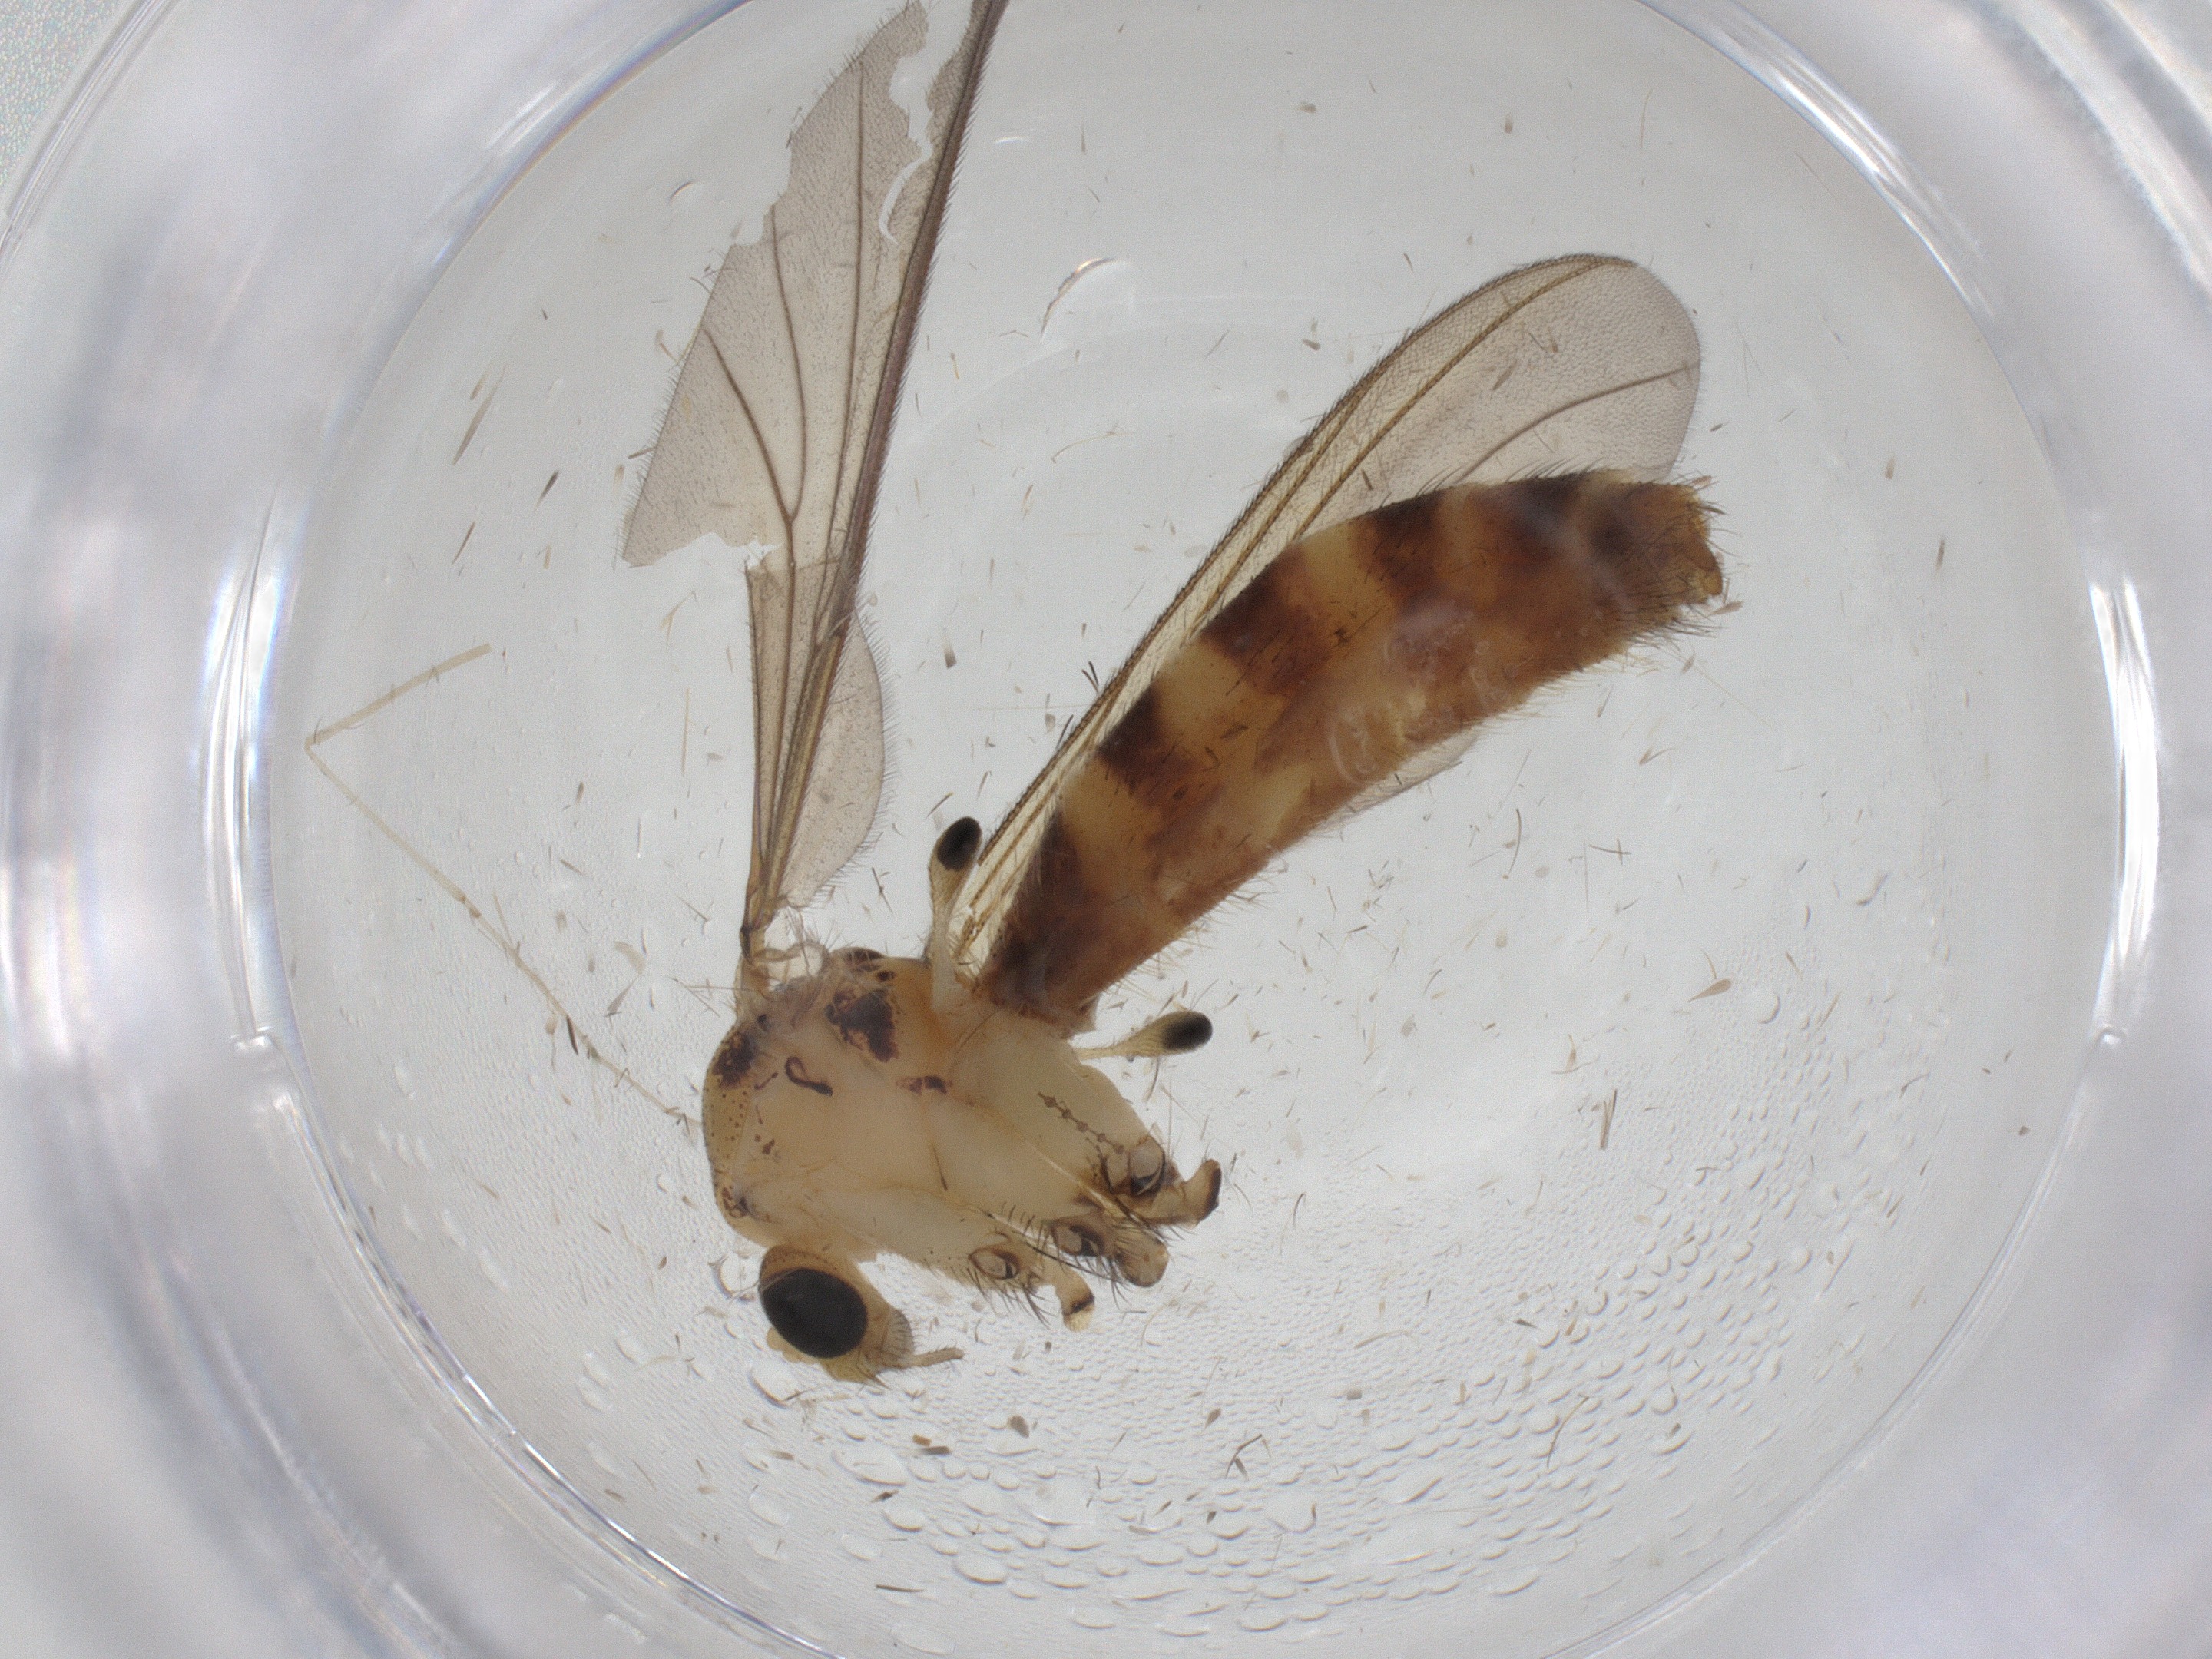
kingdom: Animalia
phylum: Arthropoda
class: Insecta
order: Diptera
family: Mycetophilidae
